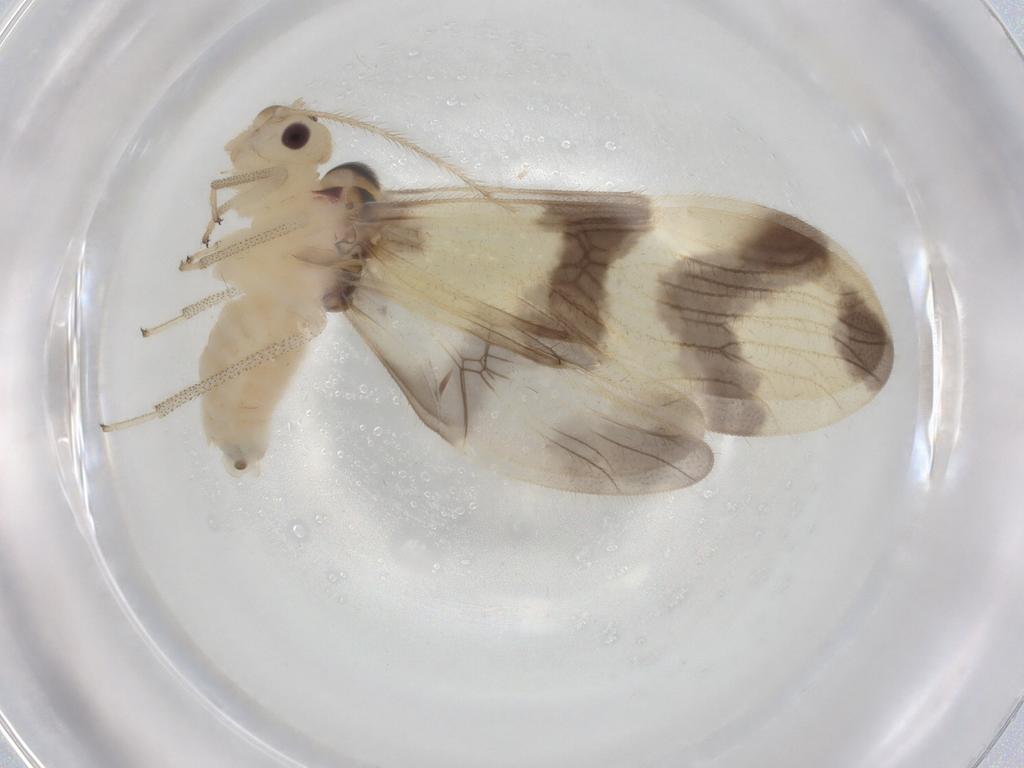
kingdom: Animalia
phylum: Arthropoda
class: Insecta
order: Psocodea
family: Amphipsocidae
